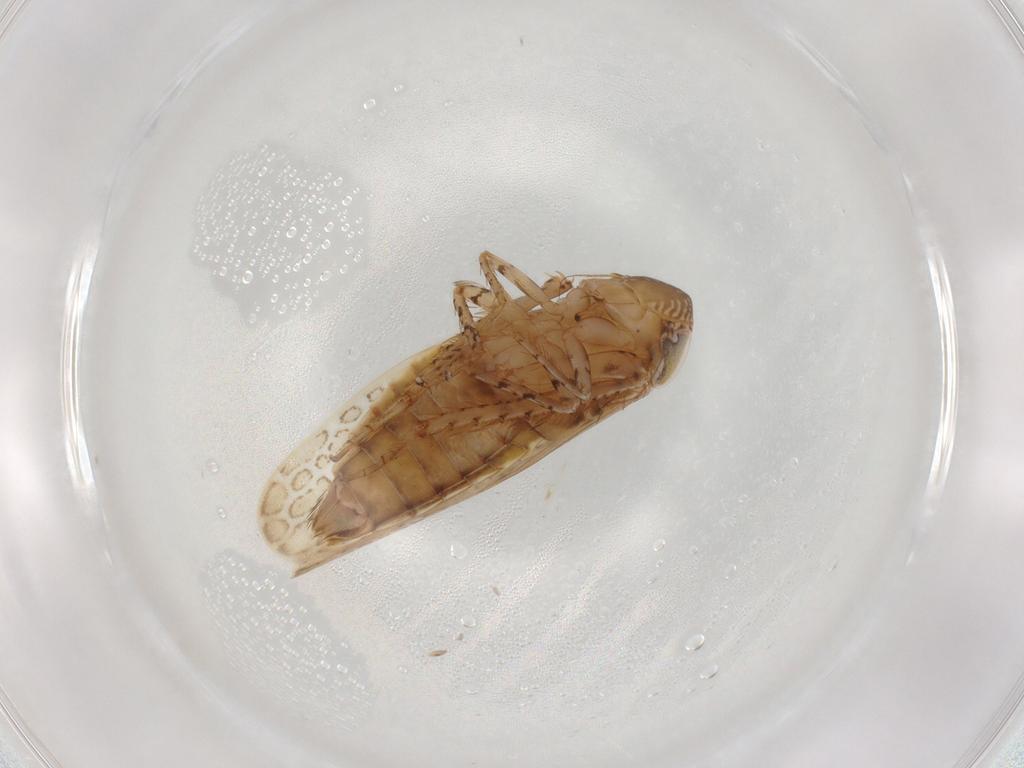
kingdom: Animalia
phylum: Arthropoda
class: Insecta
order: Hemiptera
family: Cicadellidae
